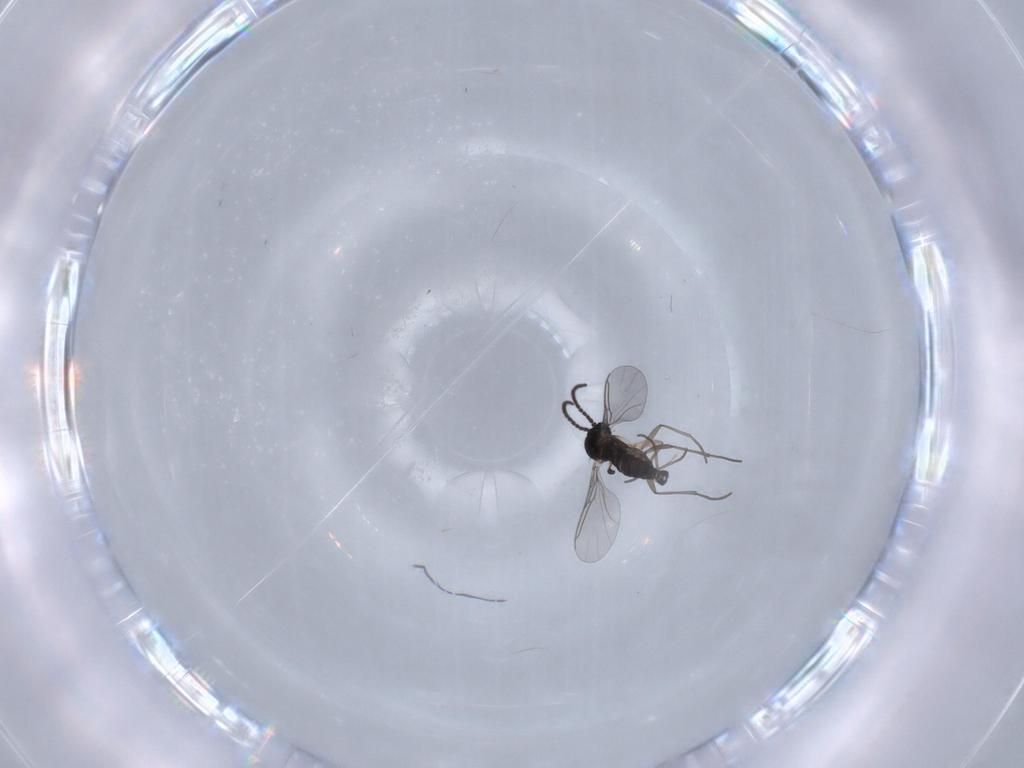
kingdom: Animalia
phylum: Arthropoda
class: Insecta
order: Diptera
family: Sciaridae
